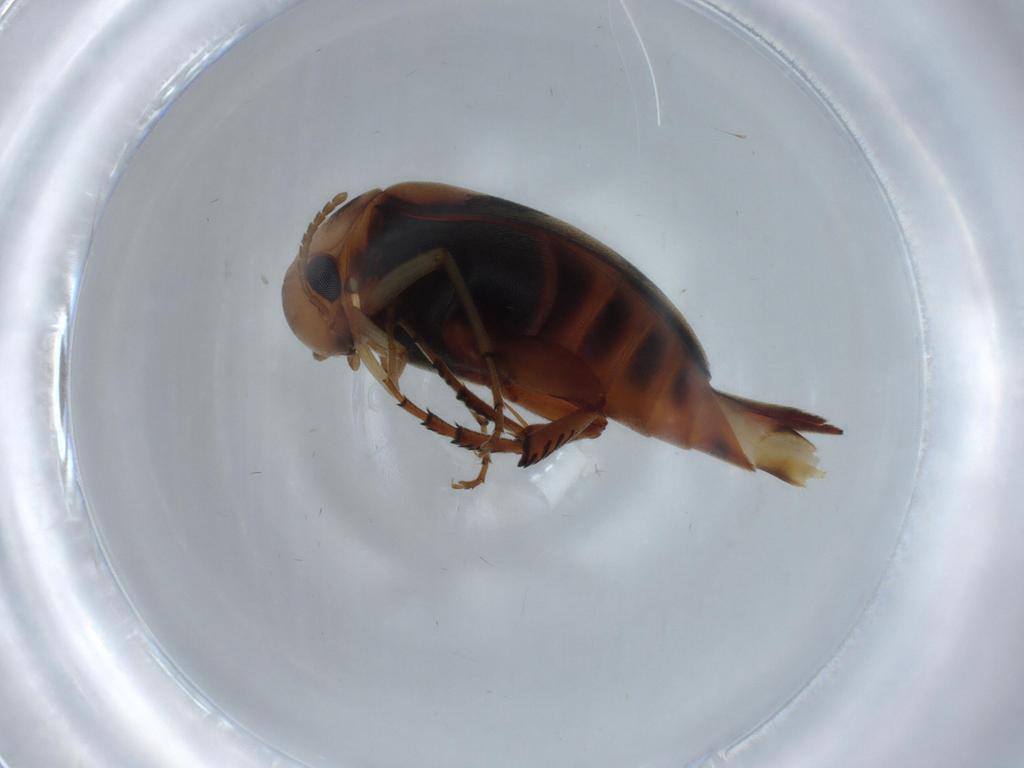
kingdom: Animalia
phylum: Arthropoda
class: Insecta
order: Coleoptera
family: Mordellidae
